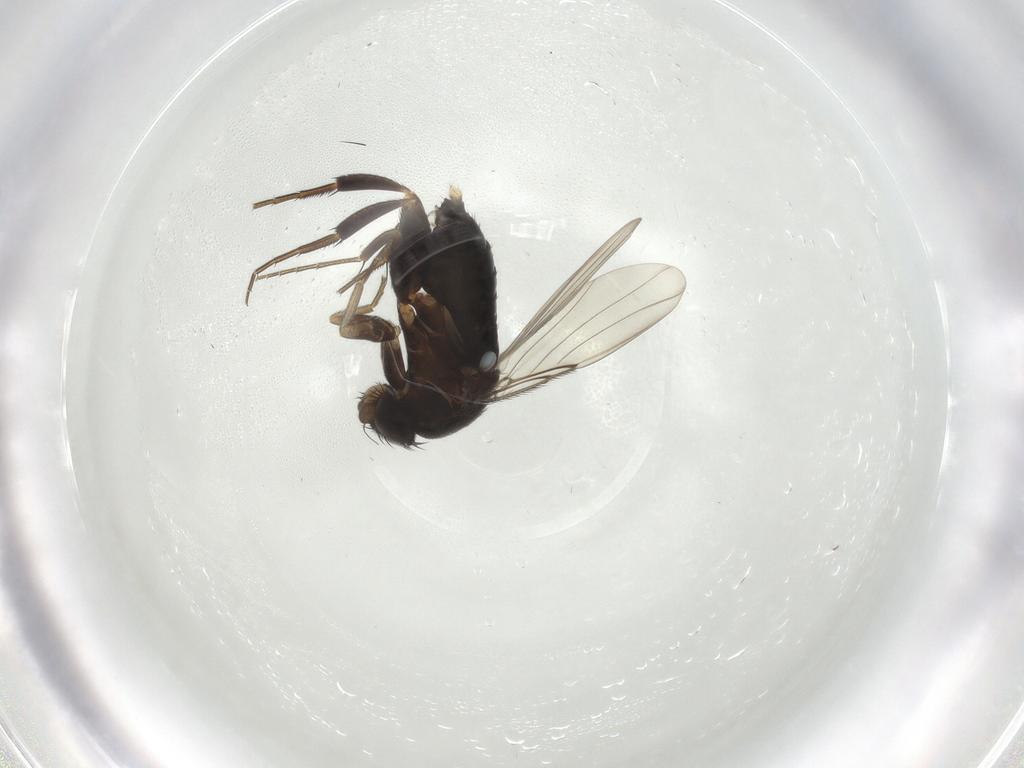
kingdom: Animalia
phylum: Arthropoda
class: Insecta
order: Diptera
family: Phoridae
